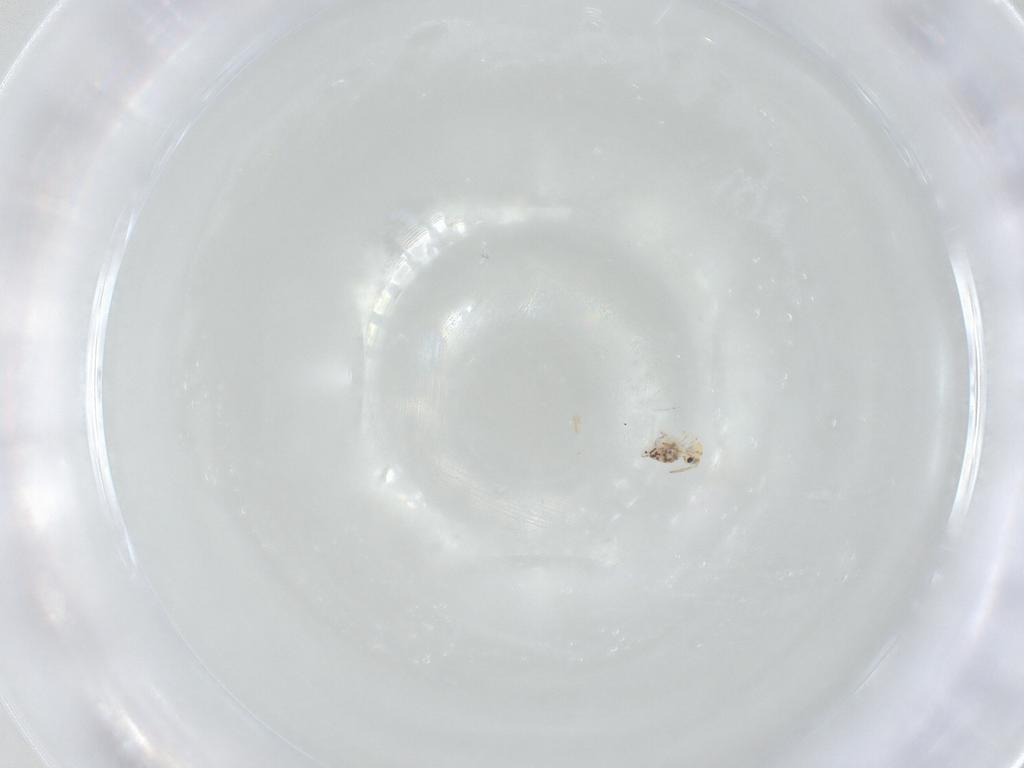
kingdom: Animalia
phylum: Arthropoda
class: Collembola
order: Symphypleona
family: Bourletiellidae
